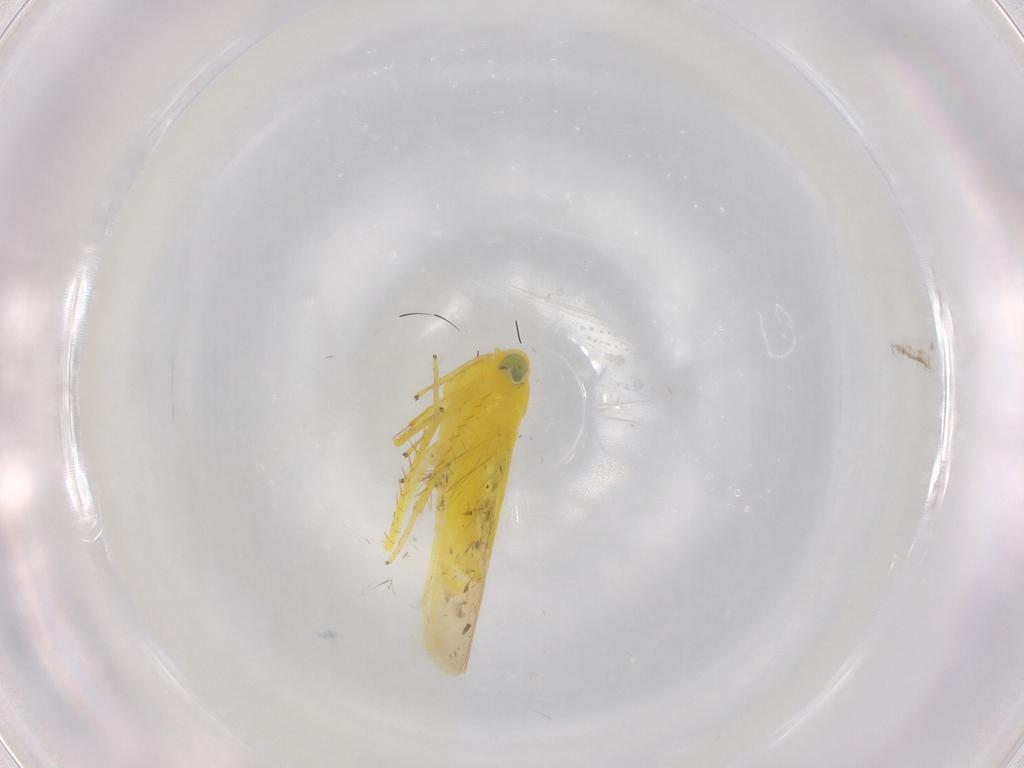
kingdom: Animalia
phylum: Arthropoda
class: Insecta
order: Hemiptera
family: Cicadellidae
